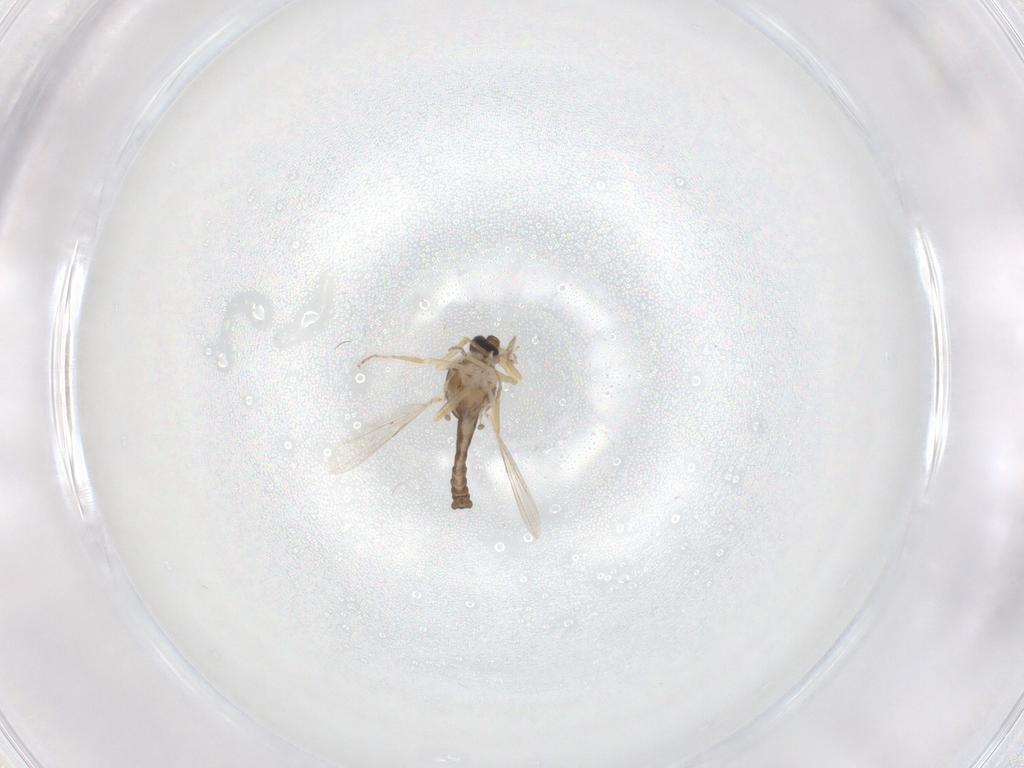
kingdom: Animalia
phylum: Arthropoda
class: Insecta
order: Diptera
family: Ceratopogonidae
